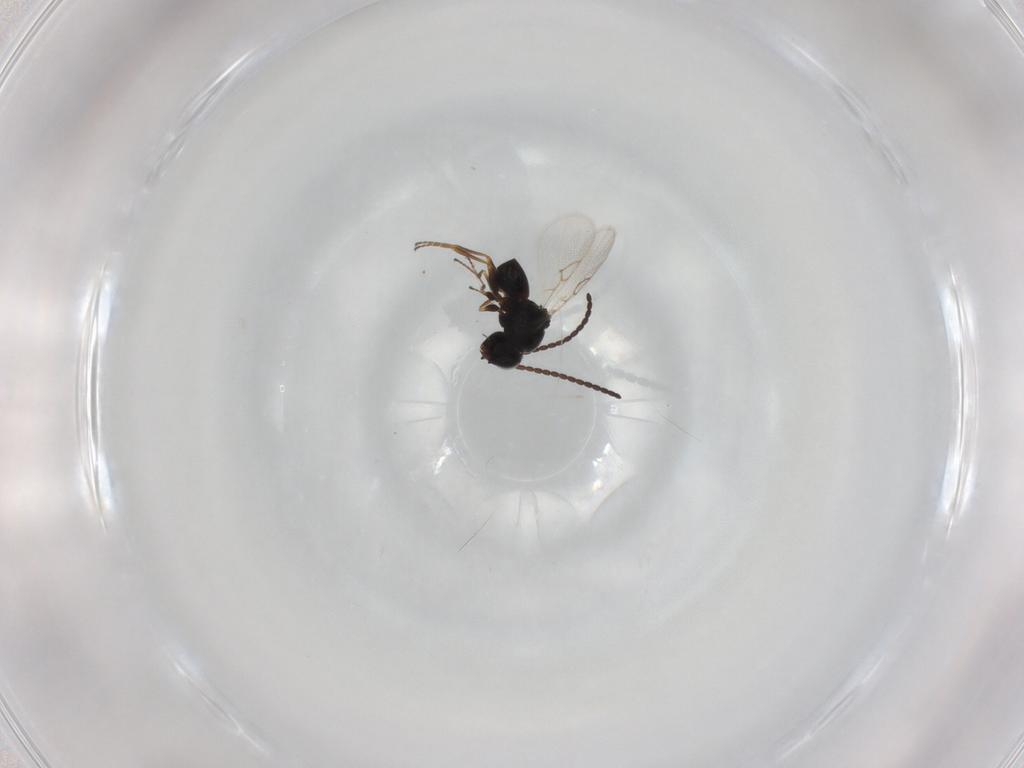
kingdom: Animalia
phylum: Arthropoda
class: Insecta
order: Hymenoptera
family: Figitidae
